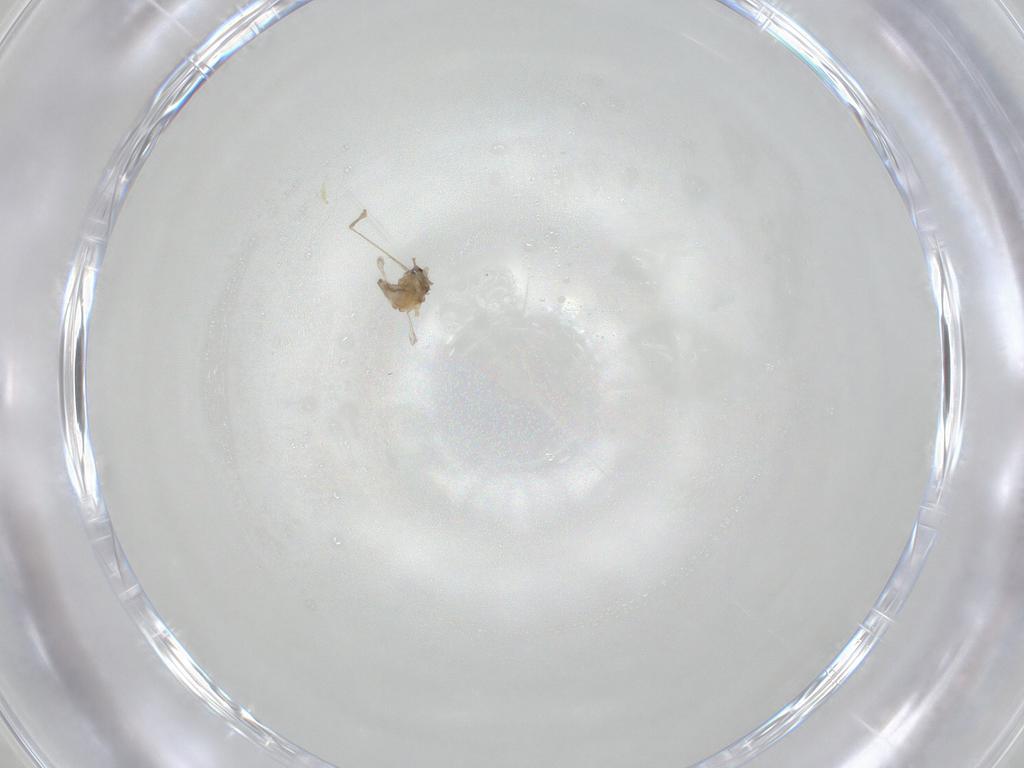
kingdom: Animalia
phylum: Arthropoda
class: Insecta
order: Diptera
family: Cecidomyiidae
